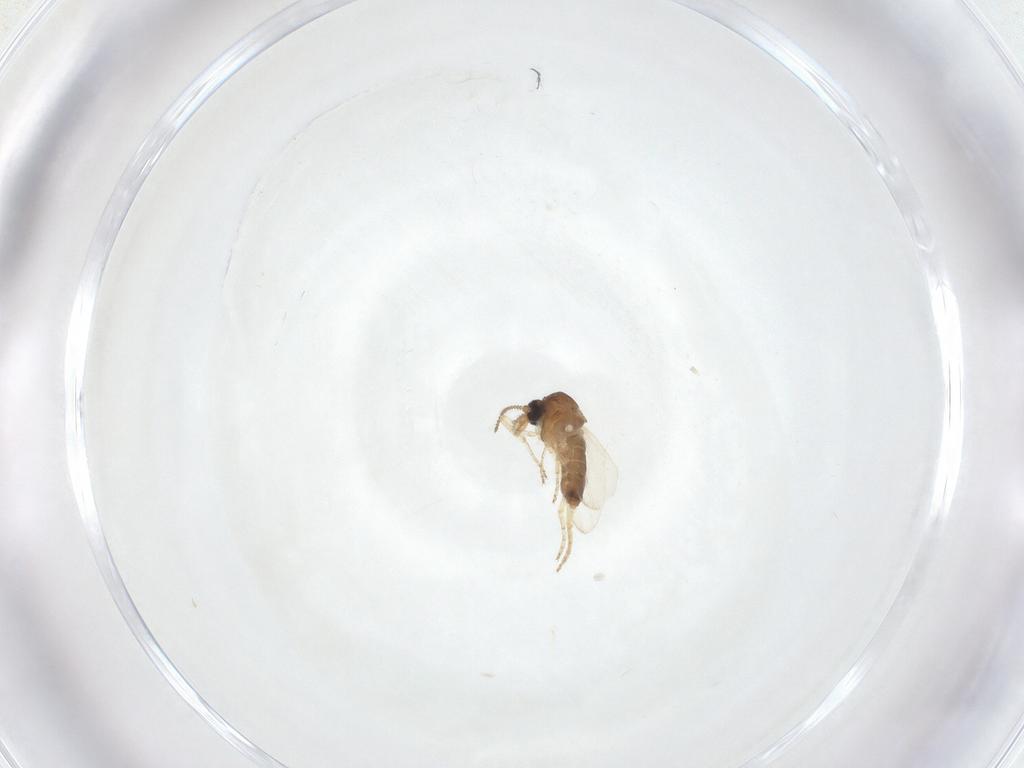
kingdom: Animalia
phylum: Arthropoda
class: Insecta
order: Diptera
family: Ceratopogonidae
